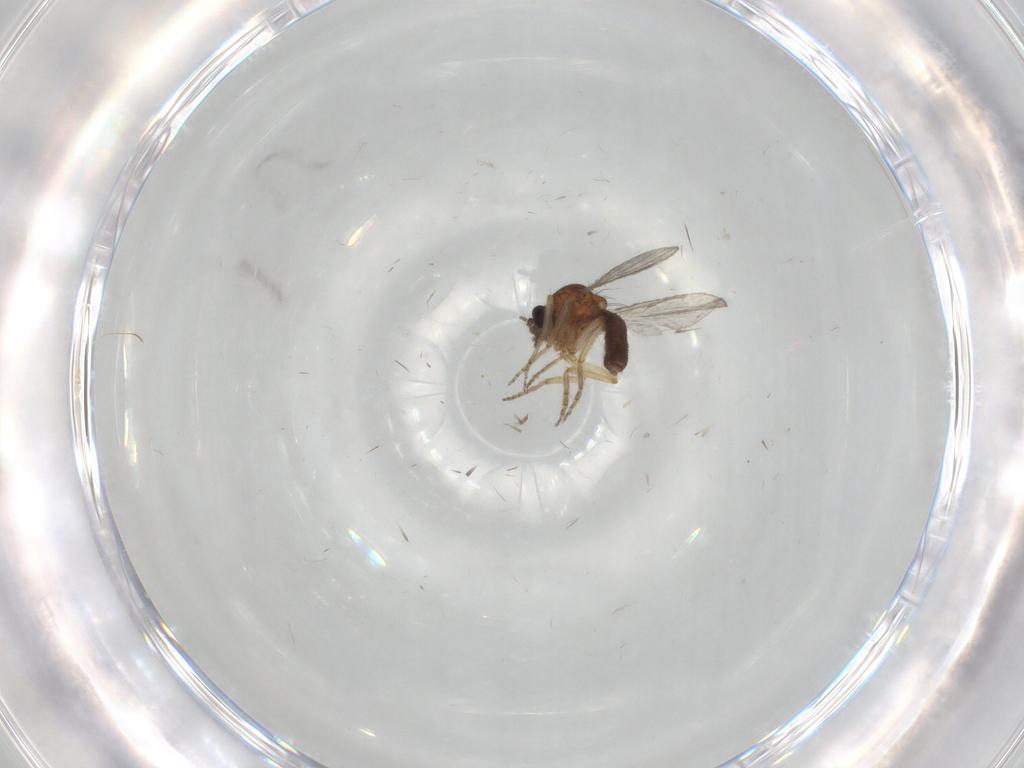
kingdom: Animalia
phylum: Arthropoda
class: Insecta
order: Diptera
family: Ceratopogonidae
